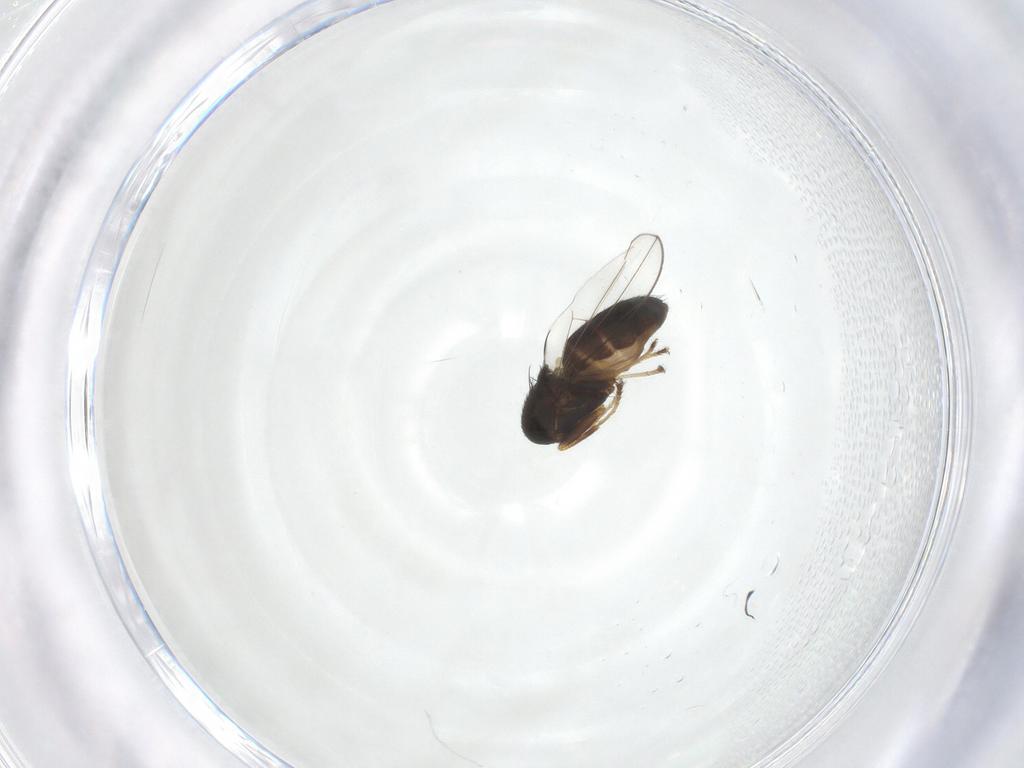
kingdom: Animalia
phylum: Arthropoda
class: Insecta
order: Diptera
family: Ephydridae
